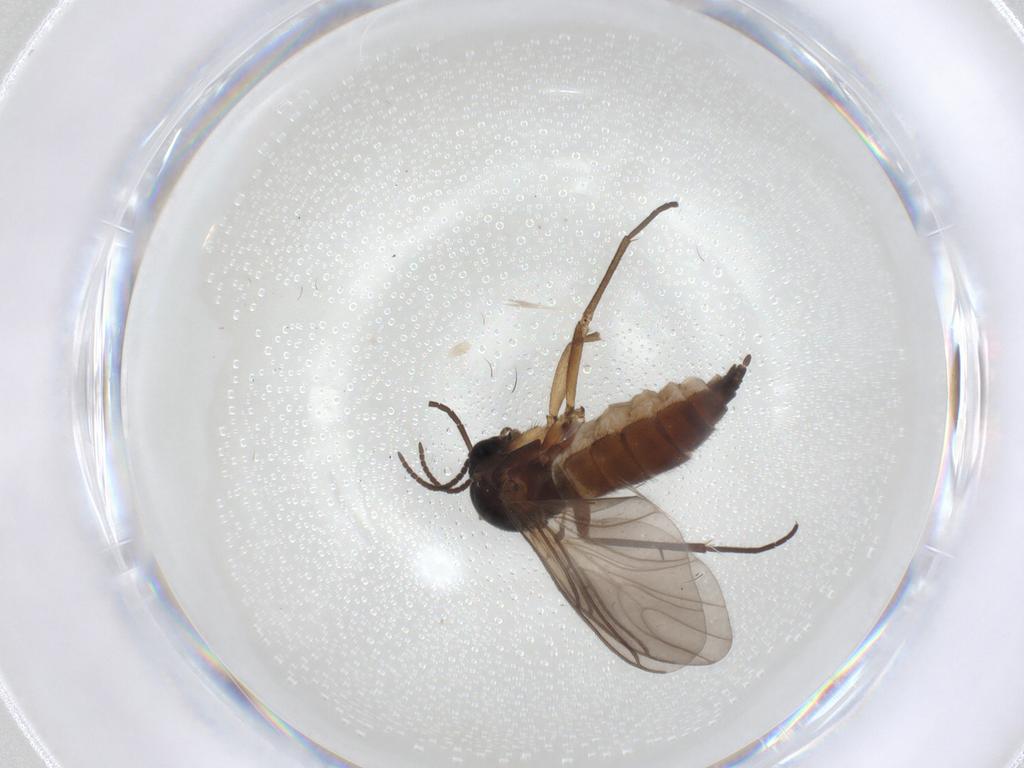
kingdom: Animalia
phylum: Arthropoda
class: Insecta
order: Diptera
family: Sciaridae
